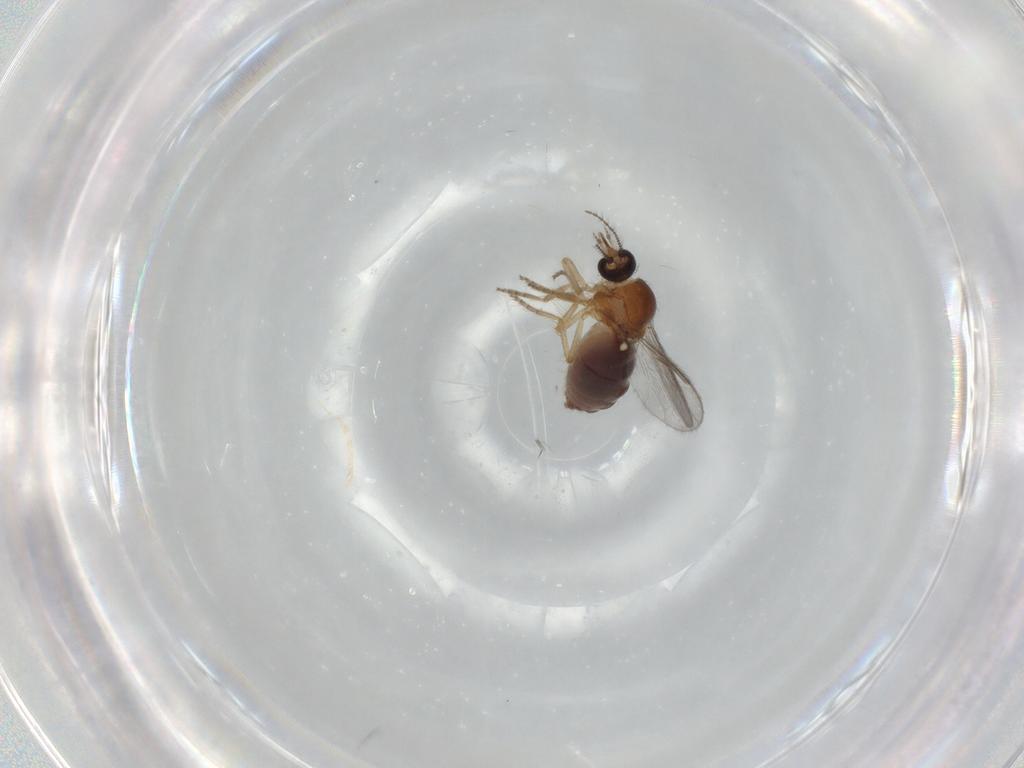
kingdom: Animalia
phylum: Arthropoda
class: Insecta
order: Diptera
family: Ceratopogonidae
